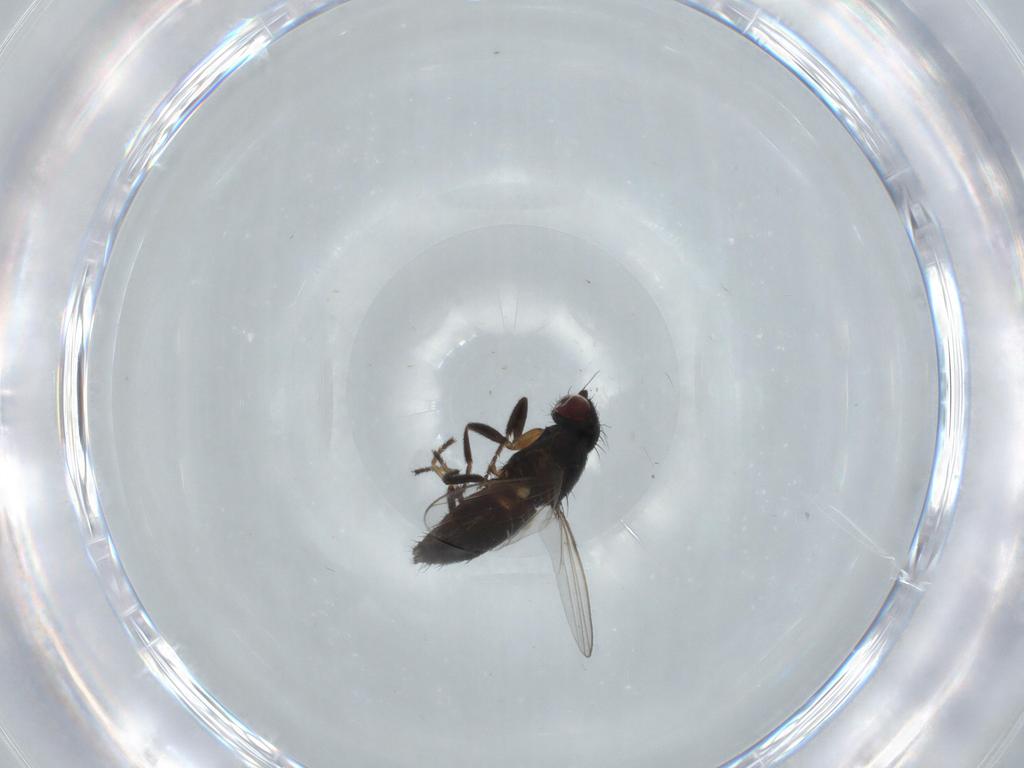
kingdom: Animalia
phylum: Arthropoda
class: Insecta
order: Diptera
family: Milichiidae
